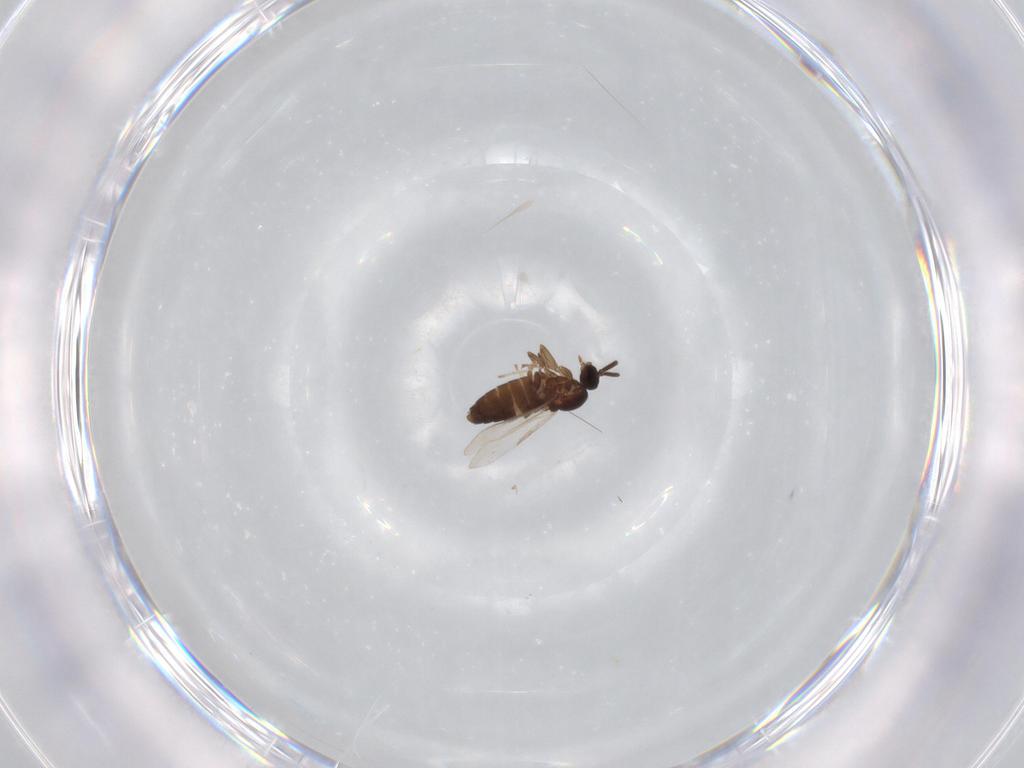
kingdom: Animalia
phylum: Arthropoda
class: Insecta
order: Diptera
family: Scatopsidae
